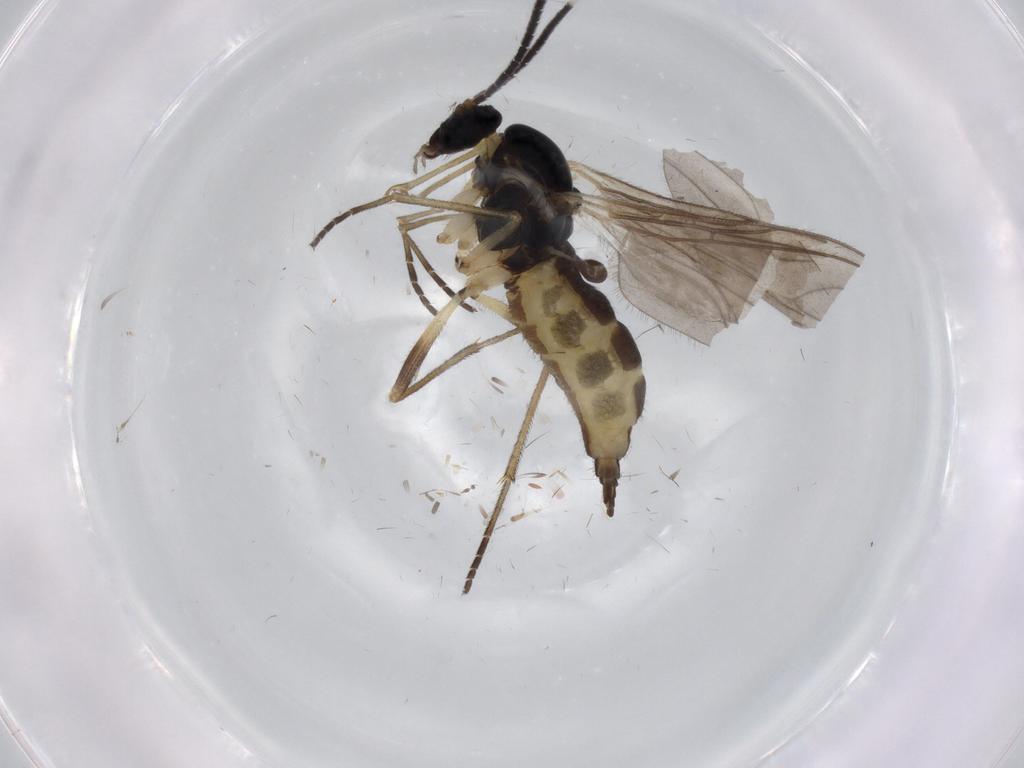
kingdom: Animalia
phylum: Arthropoda
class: Insecta
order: Diptera
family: Sciaridae
